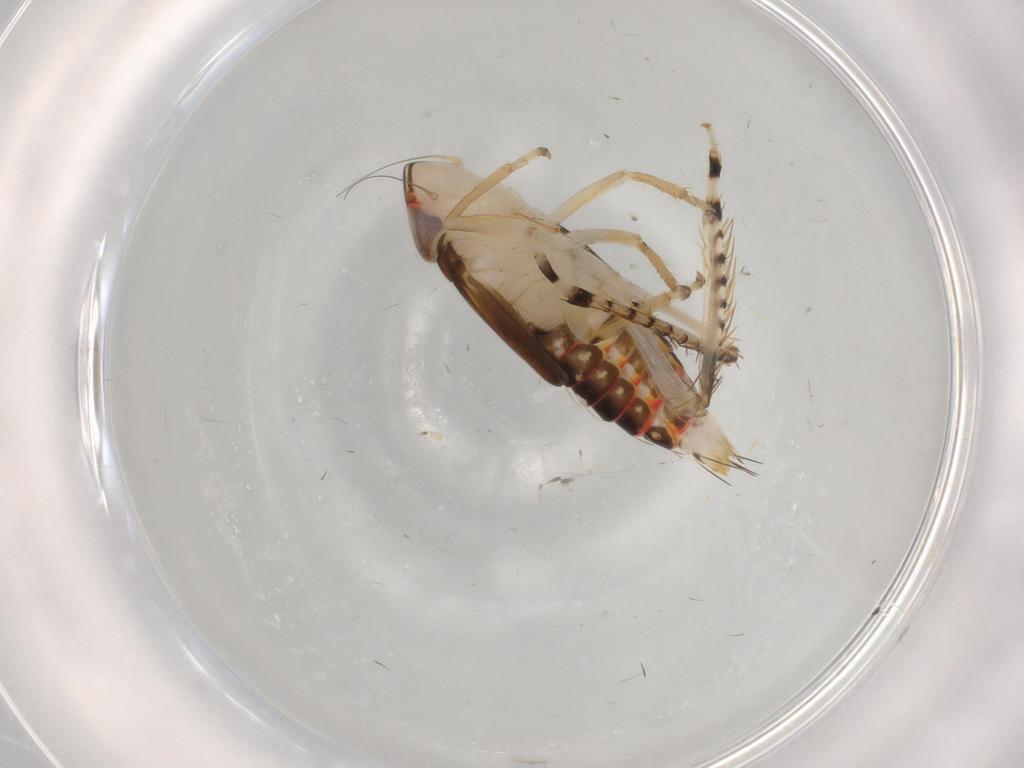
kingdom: Animalia
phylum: Arthropoda
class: Insecta
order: Hemiptera
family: Cicadellidae
